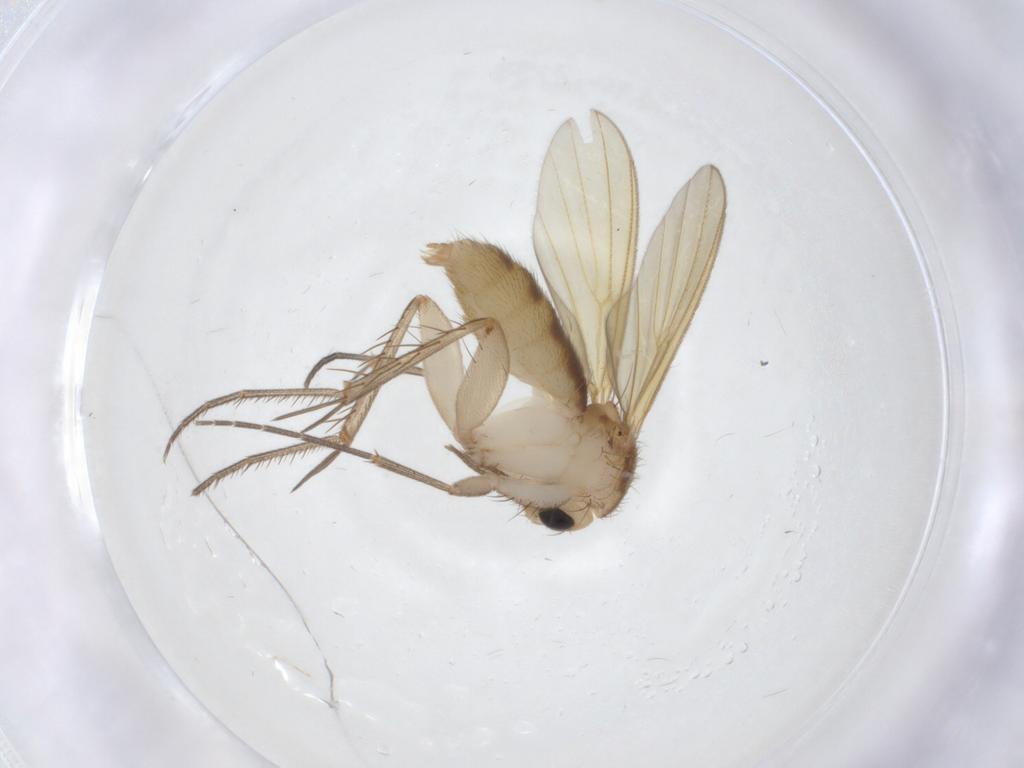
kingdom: Animalia
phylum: Arthropoda
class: Insecta
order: Diptera
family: Mycetophilidae
